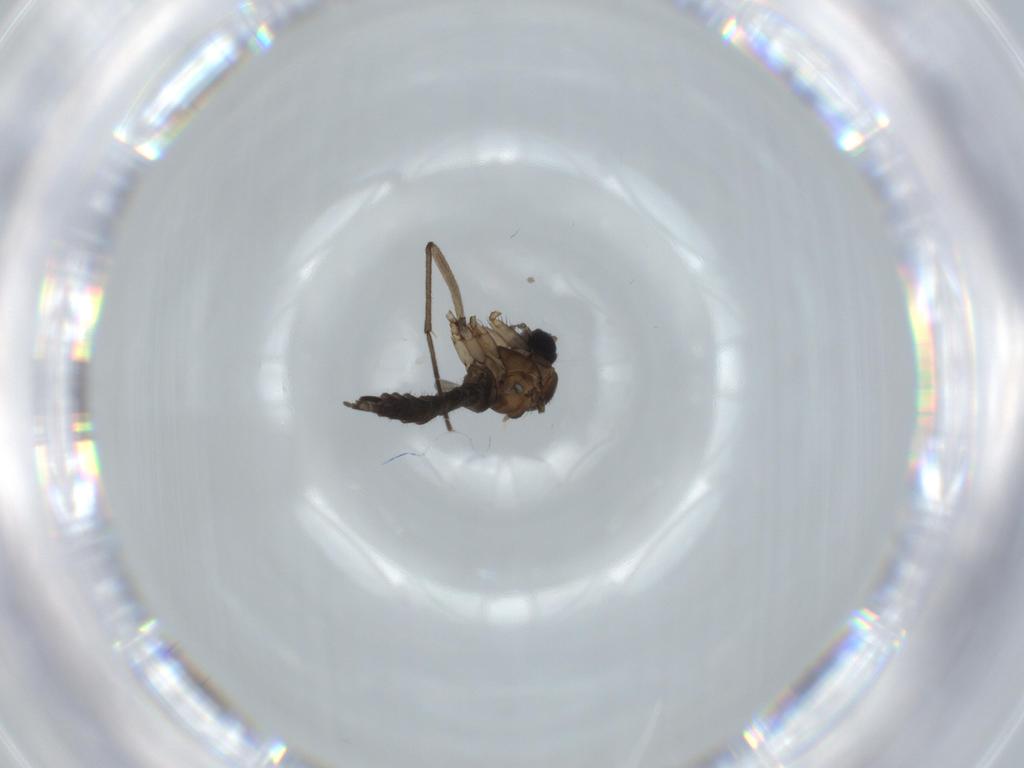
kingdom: Animalia
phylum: Arthropoda
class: Insecta
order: Diptera
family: Sciaridae
